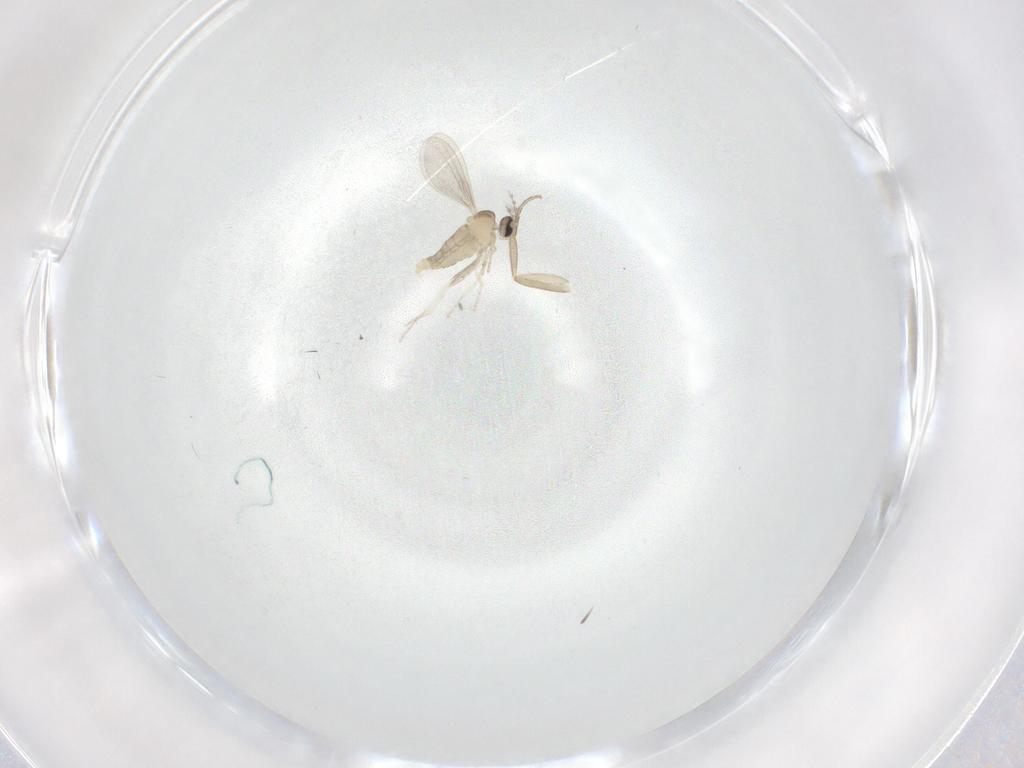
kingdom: Animalia
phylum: Arthropoda
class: Insecta
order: Diptera
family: Cecidomyiidae
